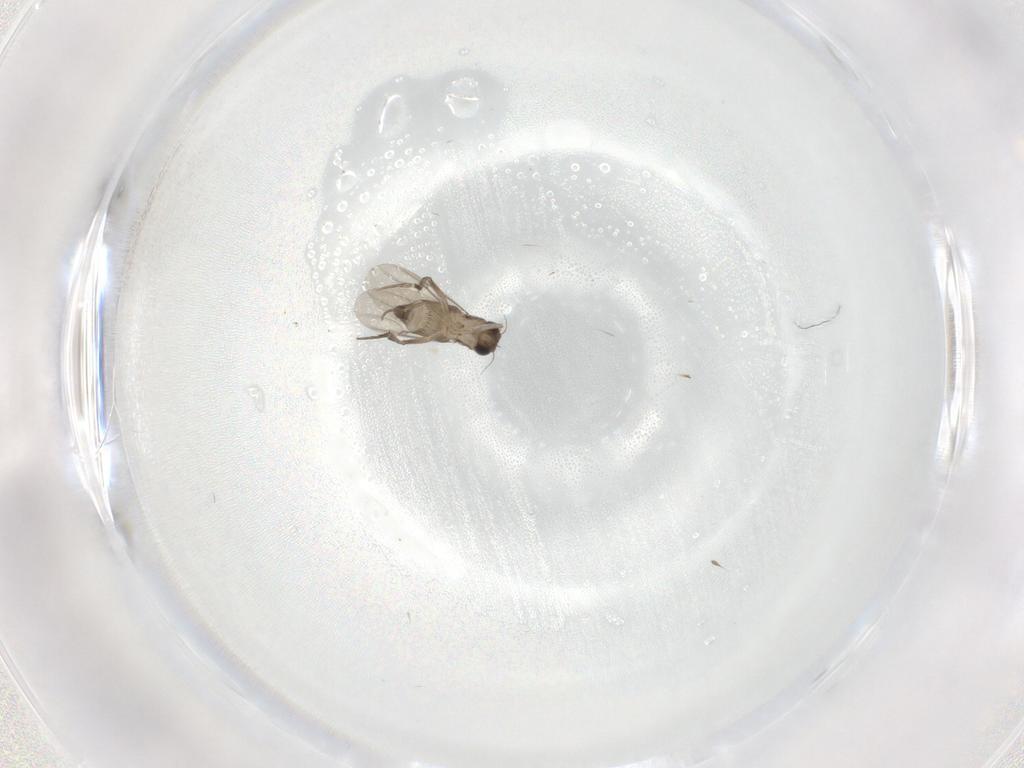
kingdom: Animalia
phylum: Arthropoda
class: Insecta
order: Diptera
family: Phoridae
